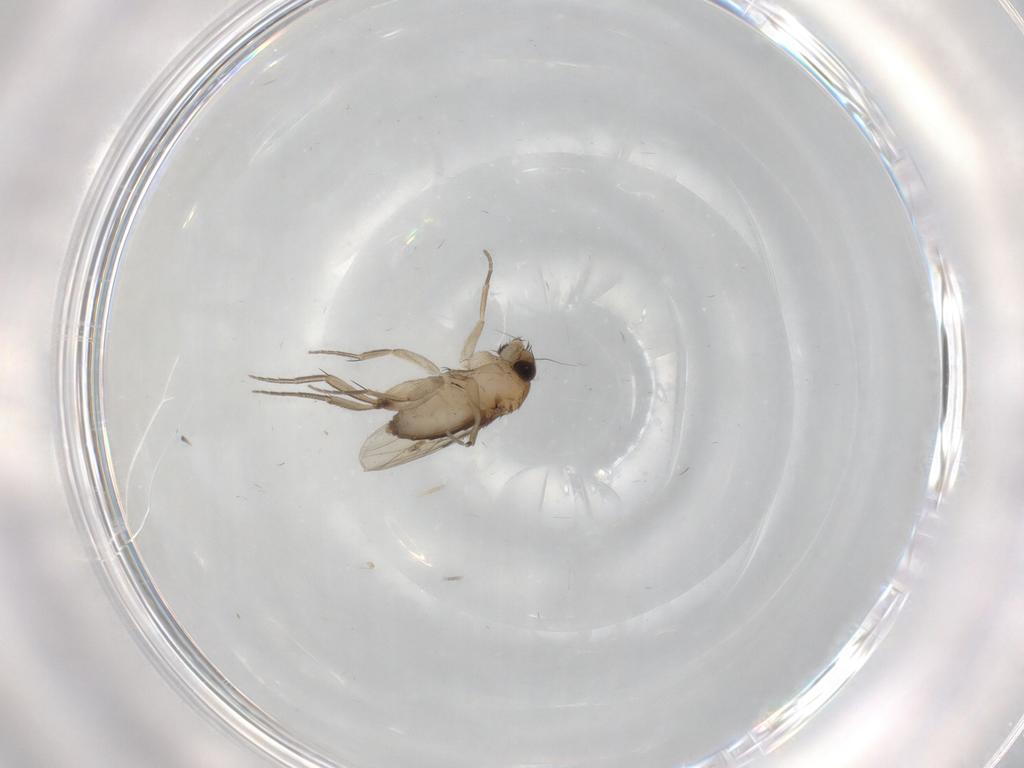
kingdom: Animalia
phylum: Arthropoda
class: Insecta
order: Diptera
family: Phoridae
